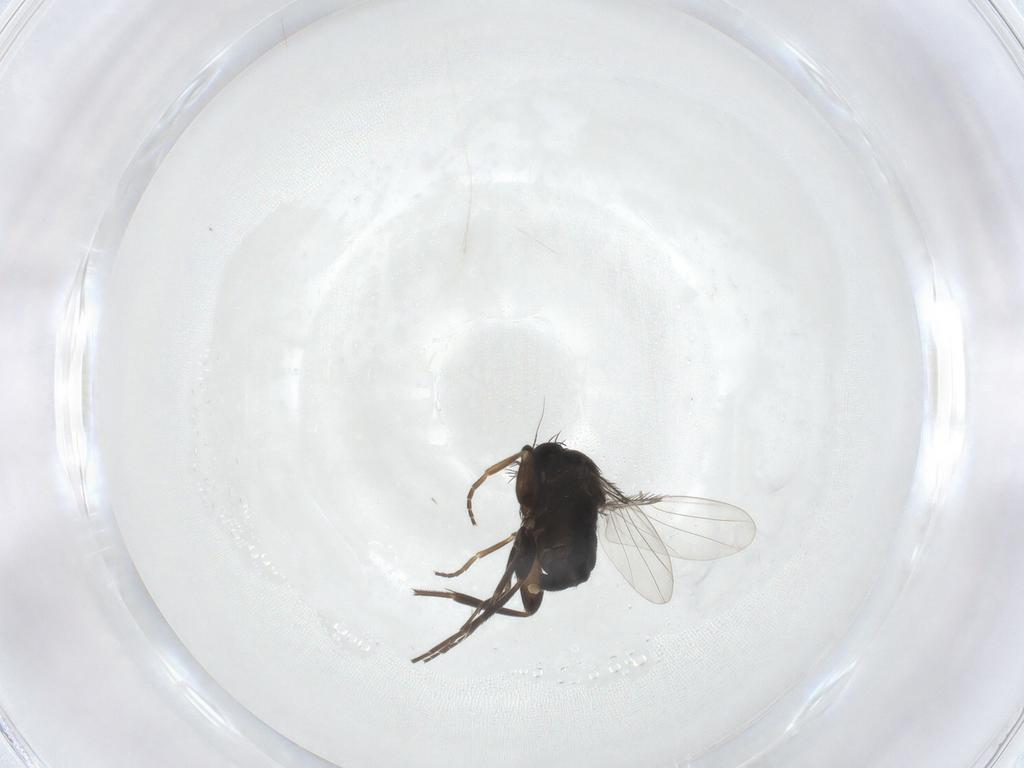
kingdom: Animalia
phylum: Arthropoda
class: Insecta
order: Diptera
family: Phoridae
